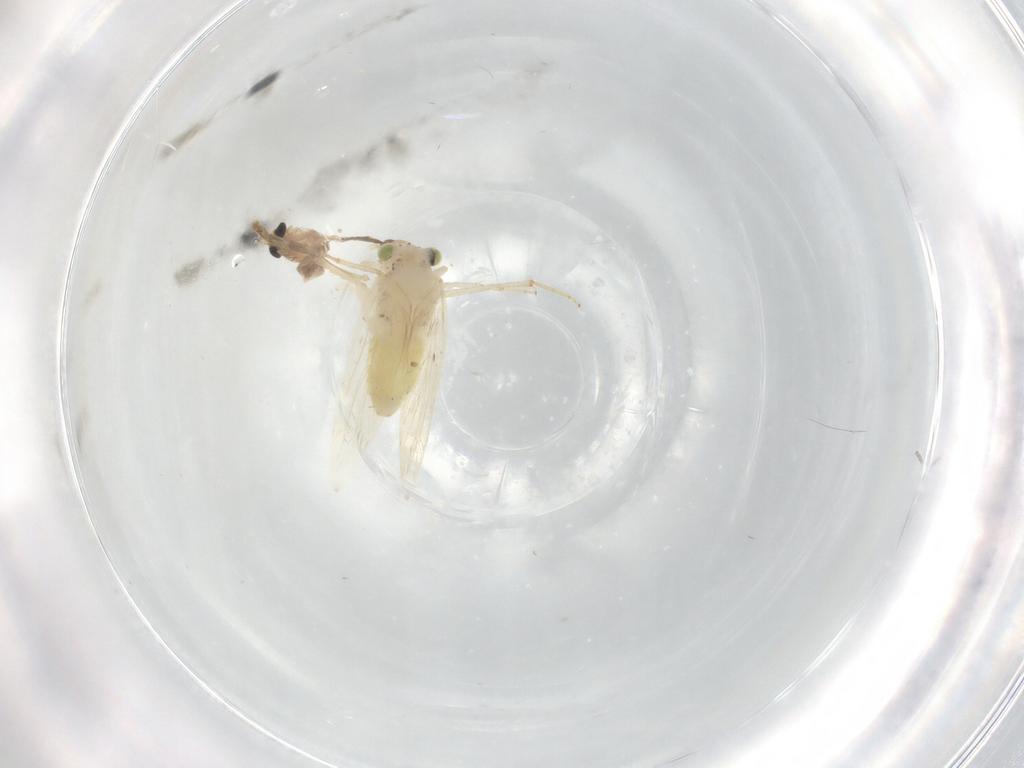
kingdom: Animalia
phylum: Arthropoda
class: Insecta
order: Psocodea
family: Lepidopsocidae
